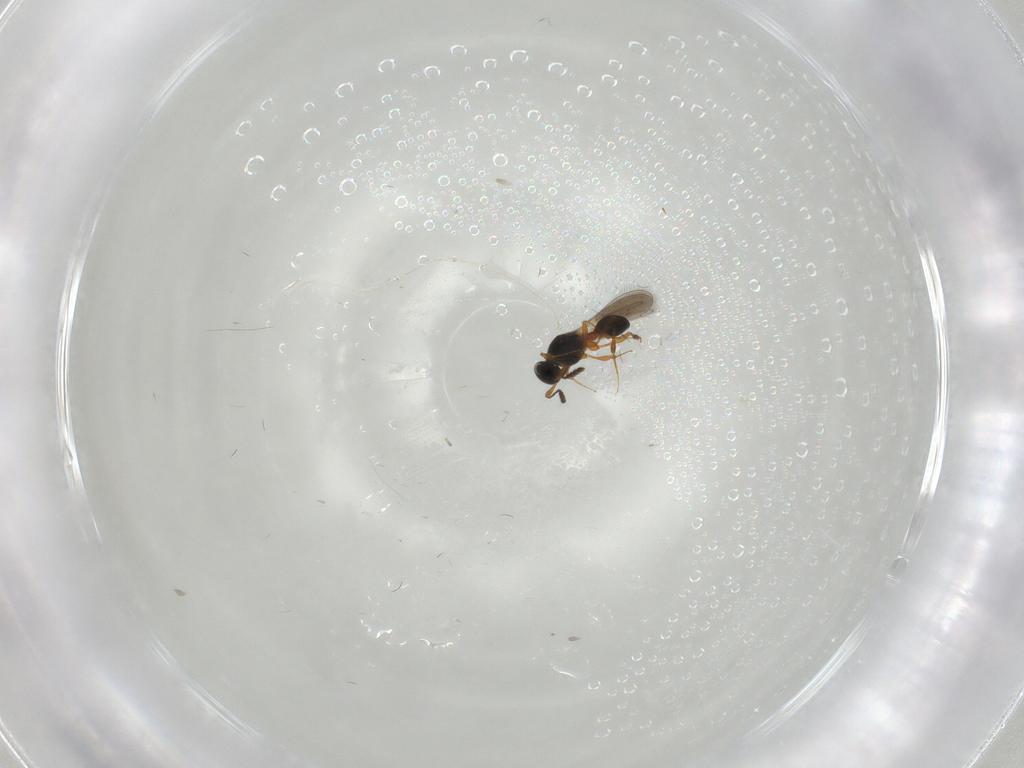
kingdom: Animalia
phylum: Arthropoda
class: Insecta
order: Hymenoptera
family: Platygastridae
